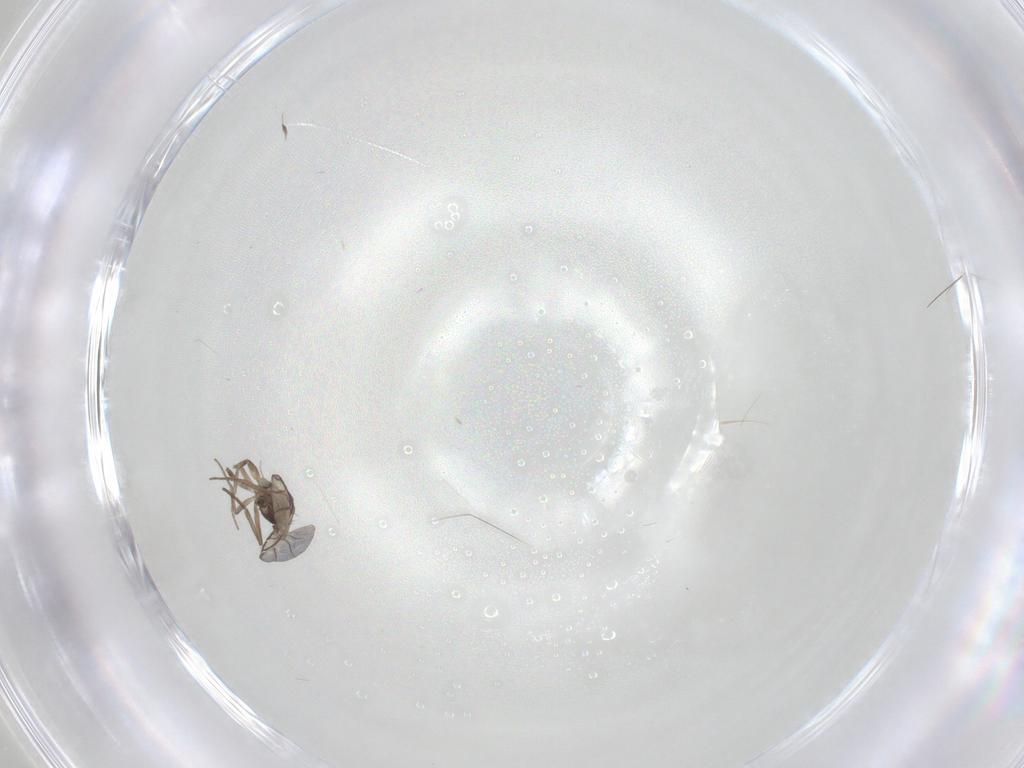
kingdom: Animalia
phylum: Arthropoda
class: Insecta
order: Diptera
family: Phoridae
